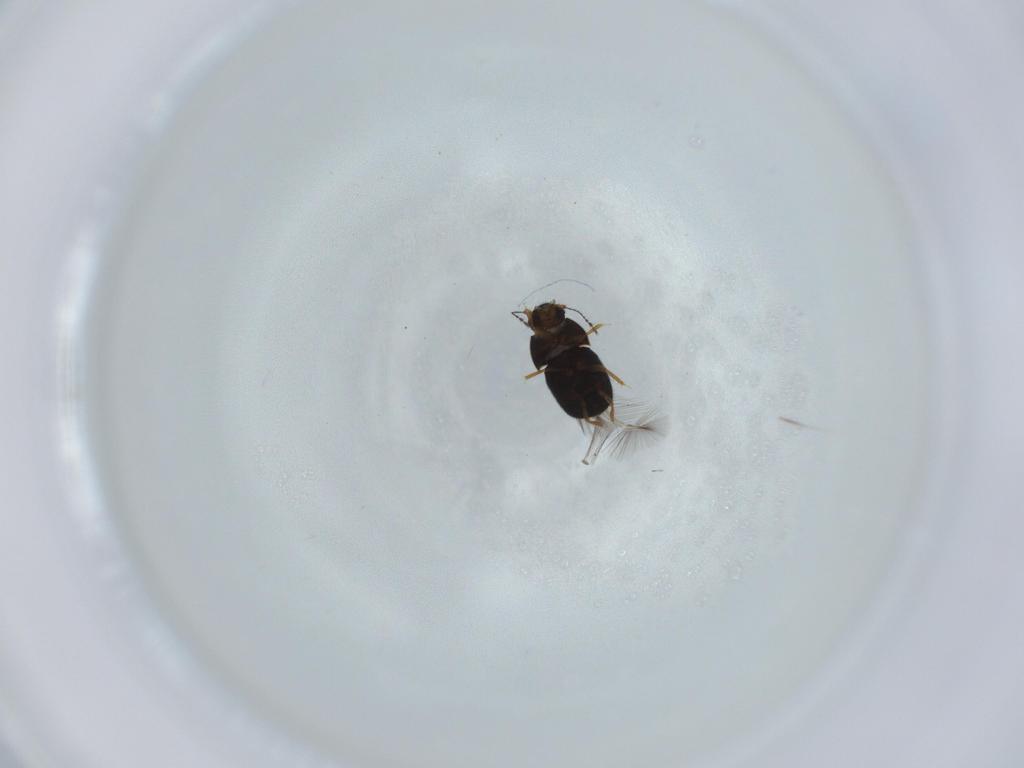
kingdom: Animalia
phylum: Arthropoda
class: Insecta
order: Coleoptera
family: Ptiliidae
